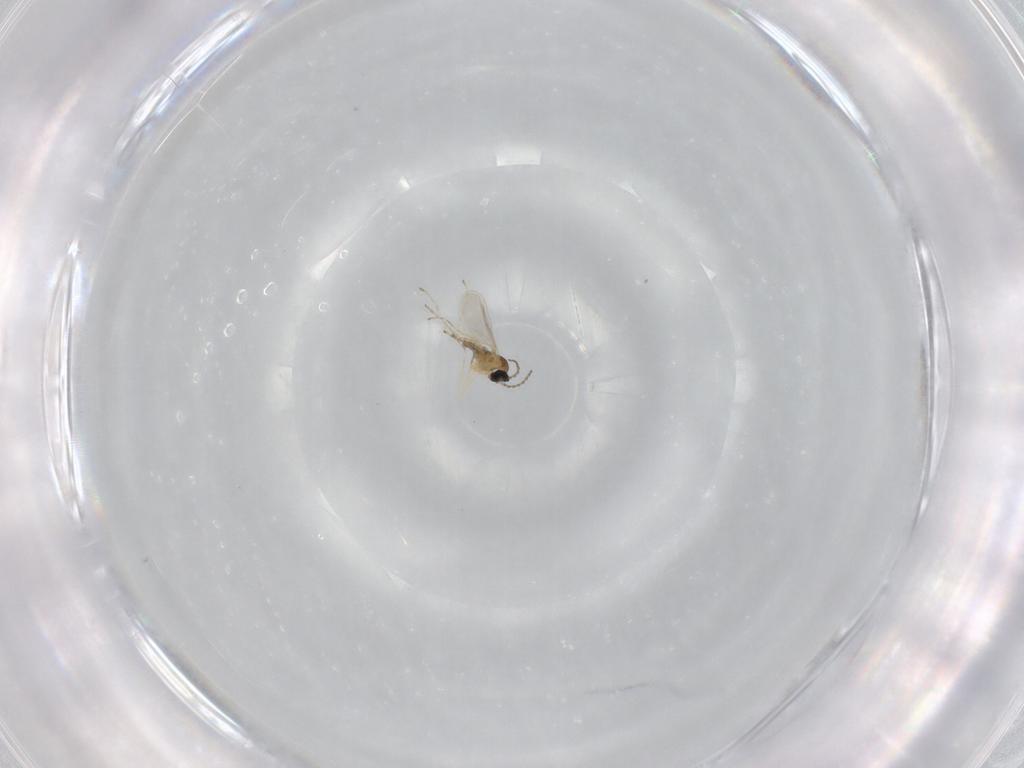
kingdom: Animalia
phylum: Arthropoda
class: Insecta
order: Diptera
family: Cecidomyiidae
